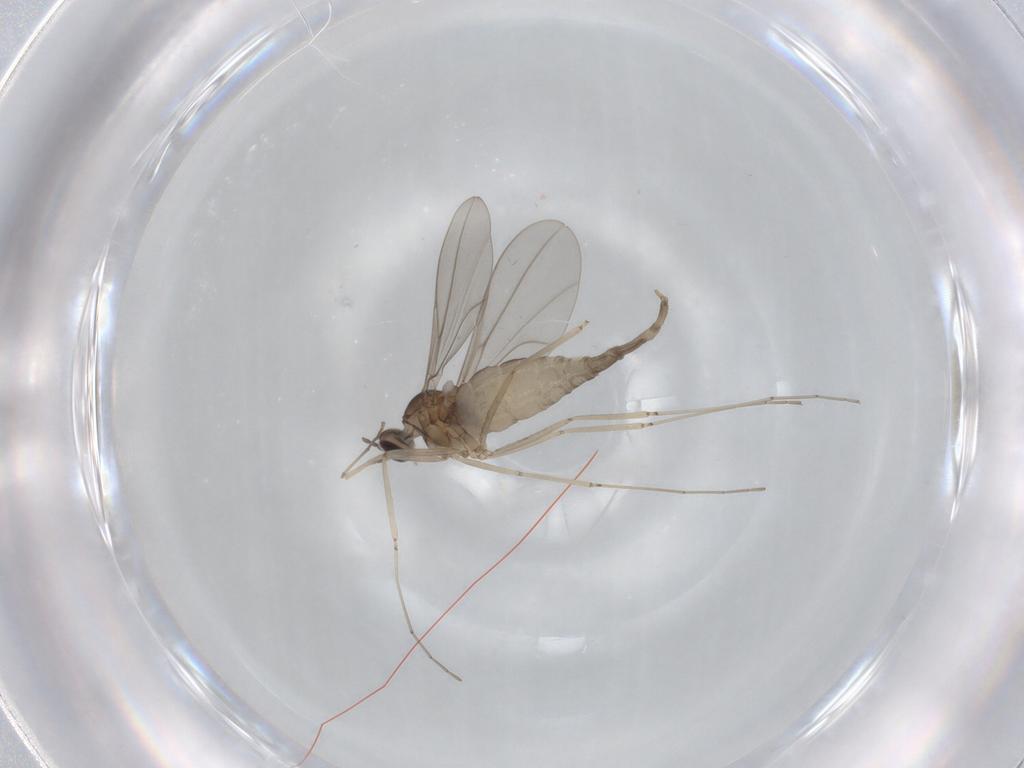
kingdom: Animalia
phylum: Arthropoda
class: Insecta
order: Diptera
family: Cecidomyiidae
